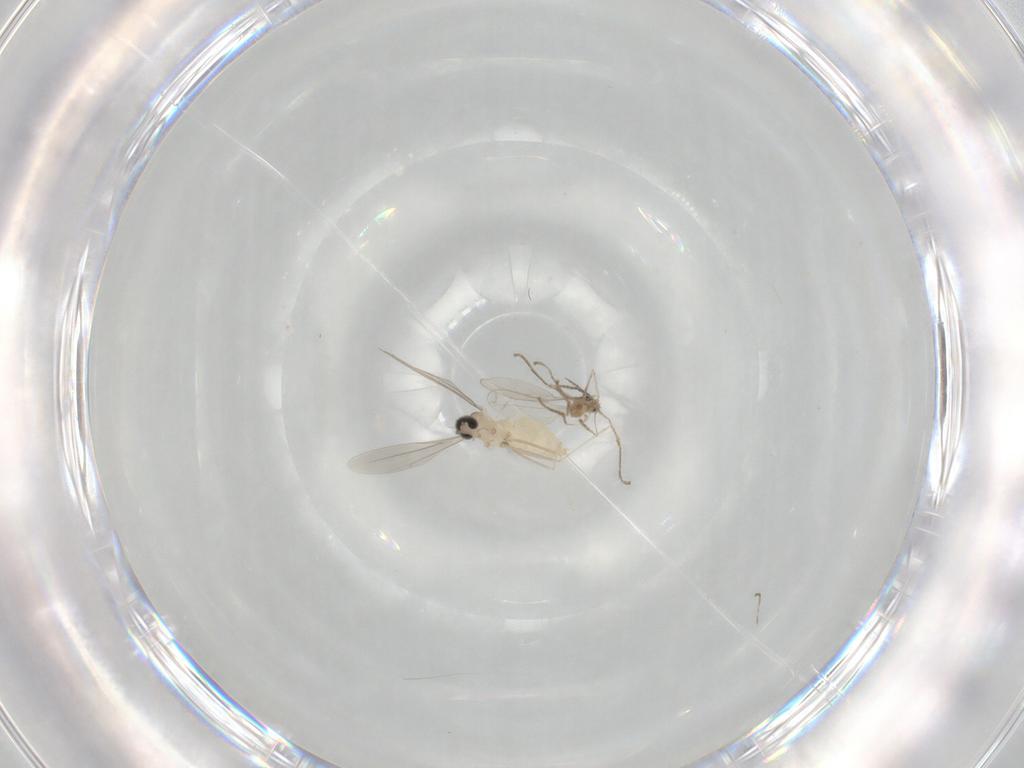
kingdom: Animalia
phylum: Arthropoda
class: Insecta
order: Diptera
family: Cecidomyiidae
